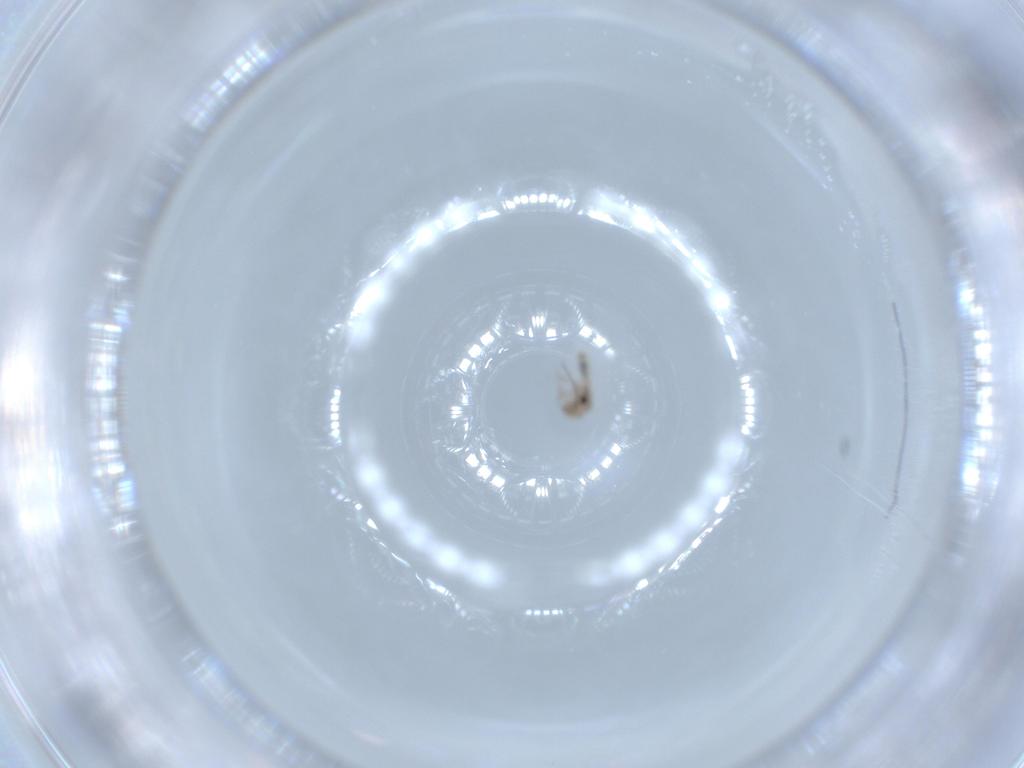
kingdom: Animalia
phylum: Arthropoda
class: Insecta
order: Psocodea
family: Lepidopsocidae
